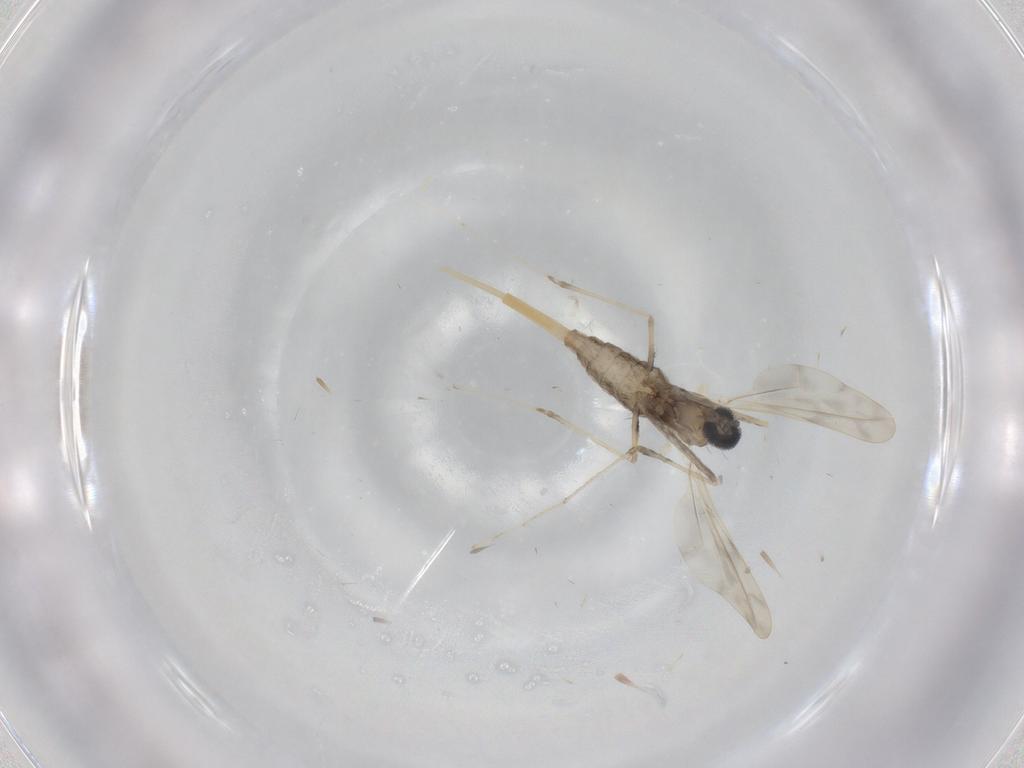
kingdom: Animalia
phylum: Arthropoda
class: Insecta
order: Diptera
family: Cecidomyiidae
